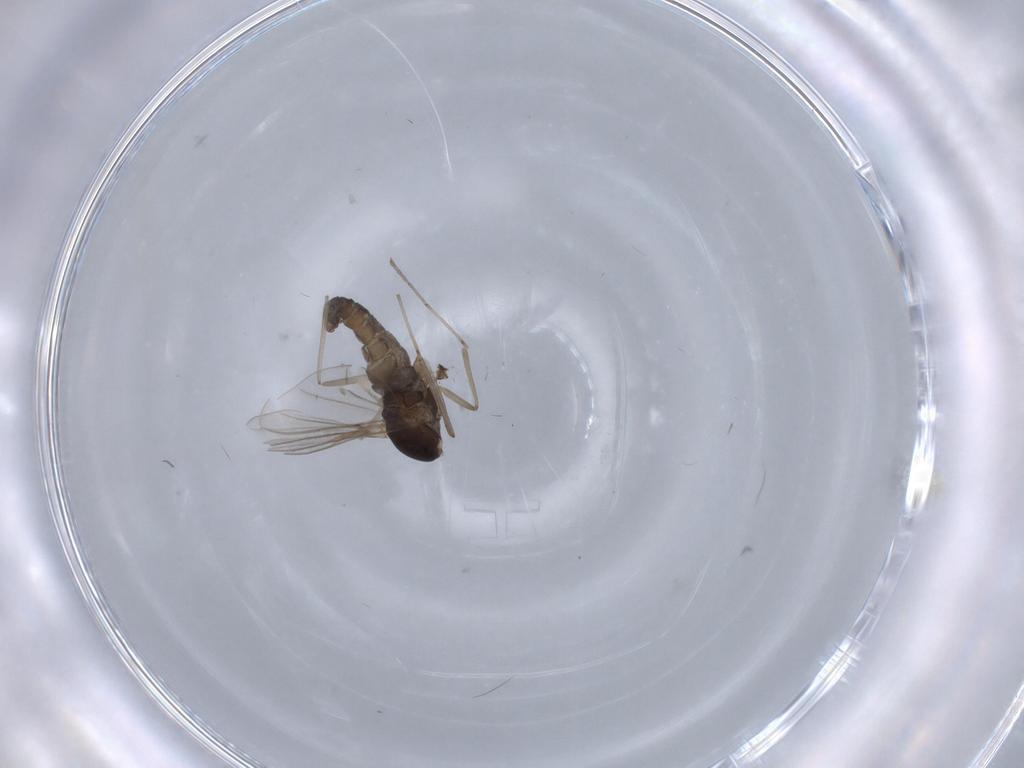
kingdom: Animalia
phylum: Arthropoda
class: Insecta
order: Diptera
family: Cecidomyiidae
